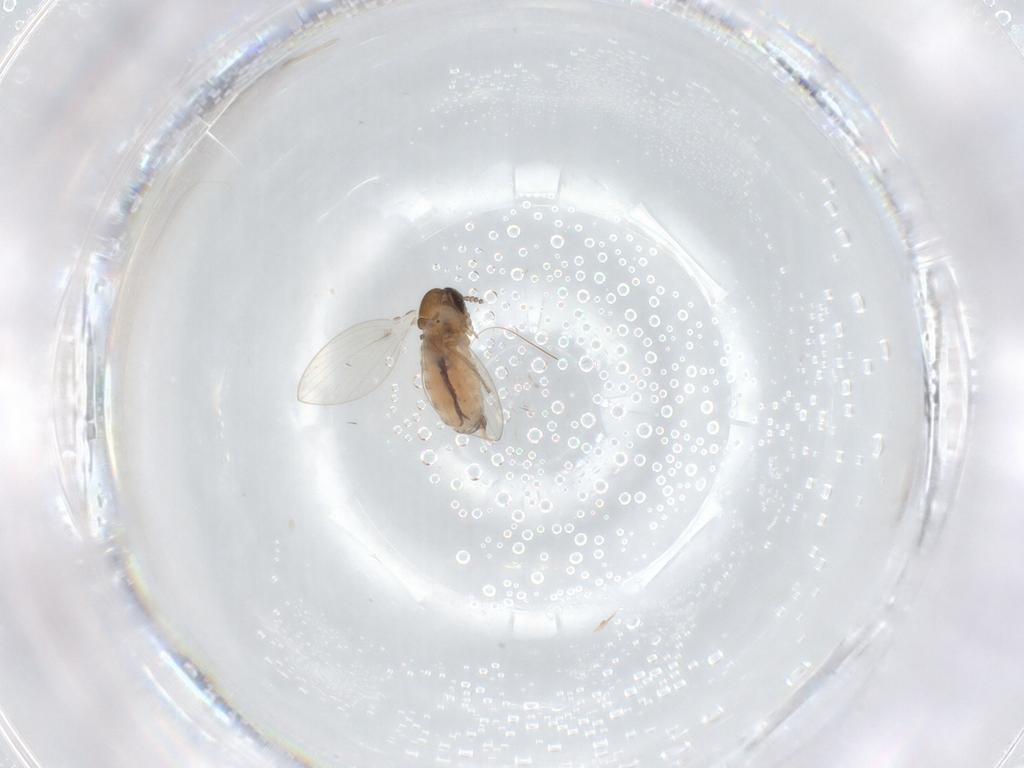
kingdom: Animalia
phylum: Arthropoda
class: Insecta
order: Diptera
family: Psychodidae
